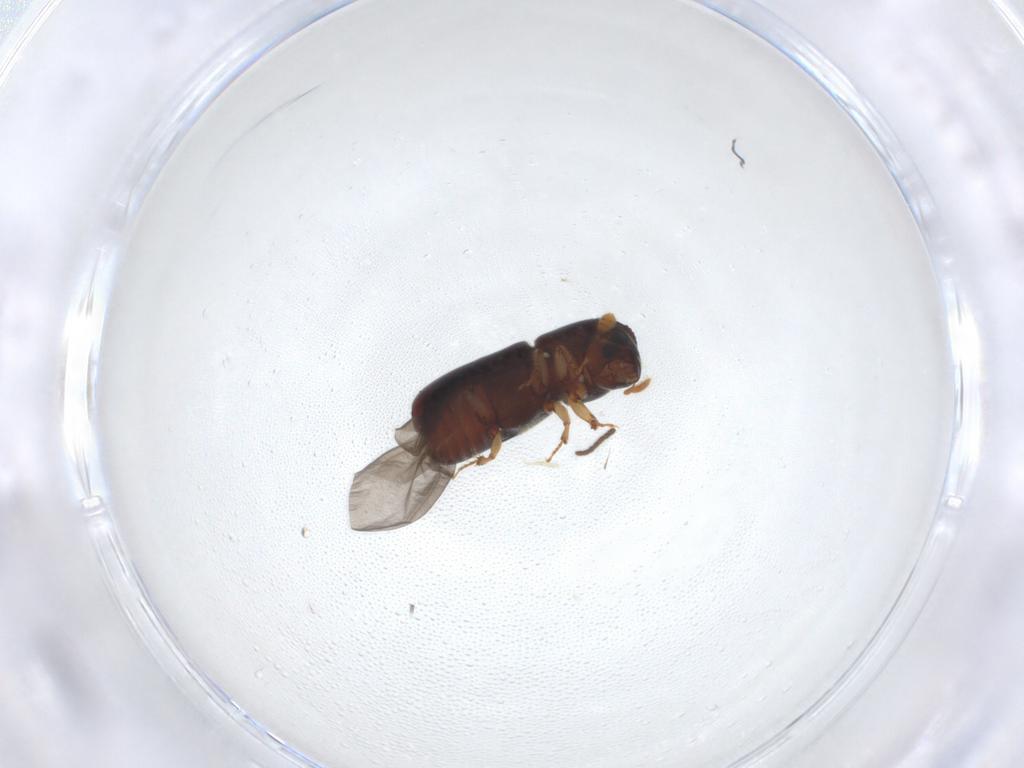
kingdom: Animalia
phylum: Arthropoda
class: Insecta
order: Coleoptera
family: Curculionidae
